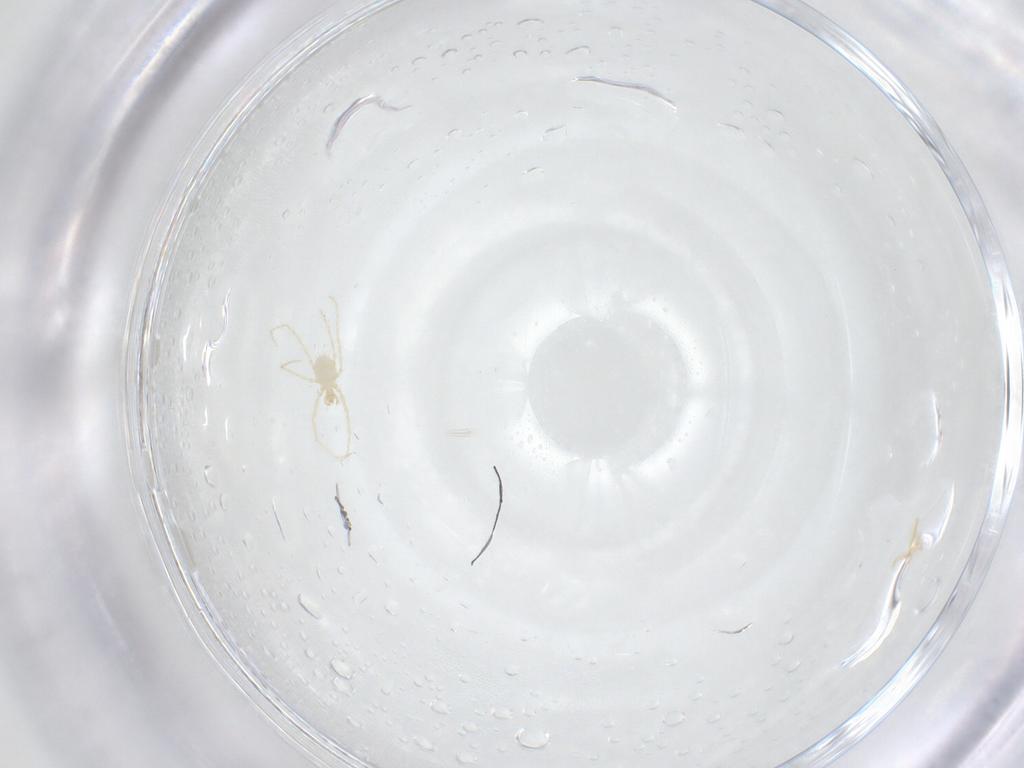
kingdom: Animalia
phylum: Arthropoda
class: Arachnida
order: Trombidiformes
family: Erythraeidae
